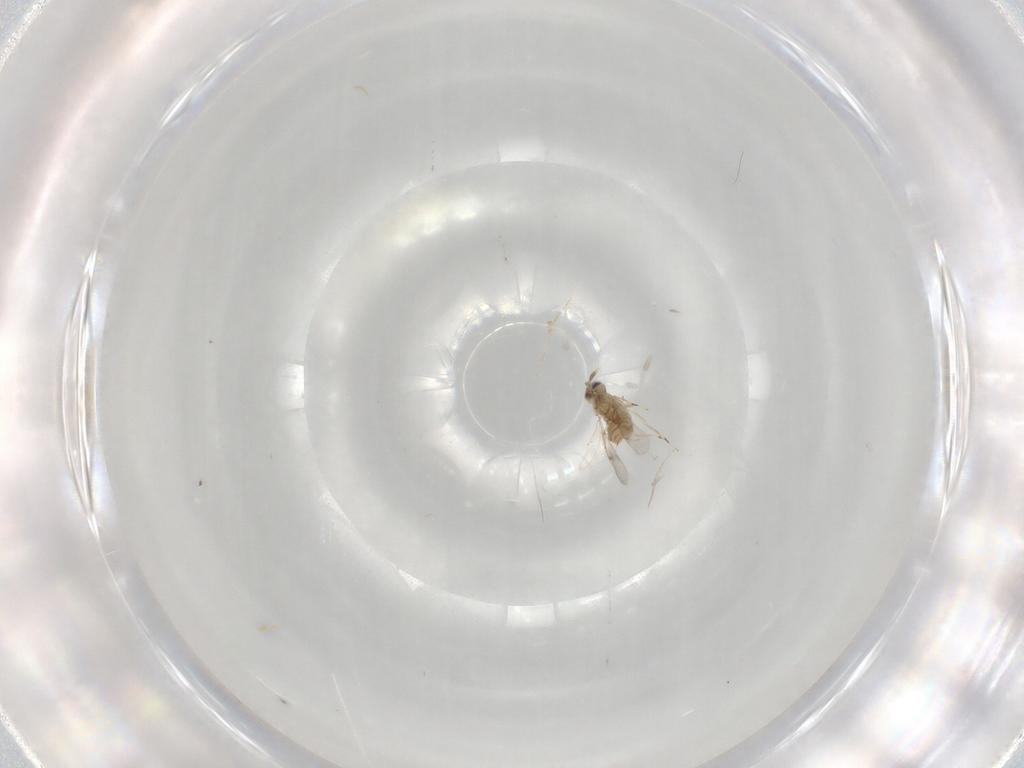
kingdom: Animalia
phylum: Arthropoda
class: Insecta
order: Hymenoptera
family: Aphelinidae
